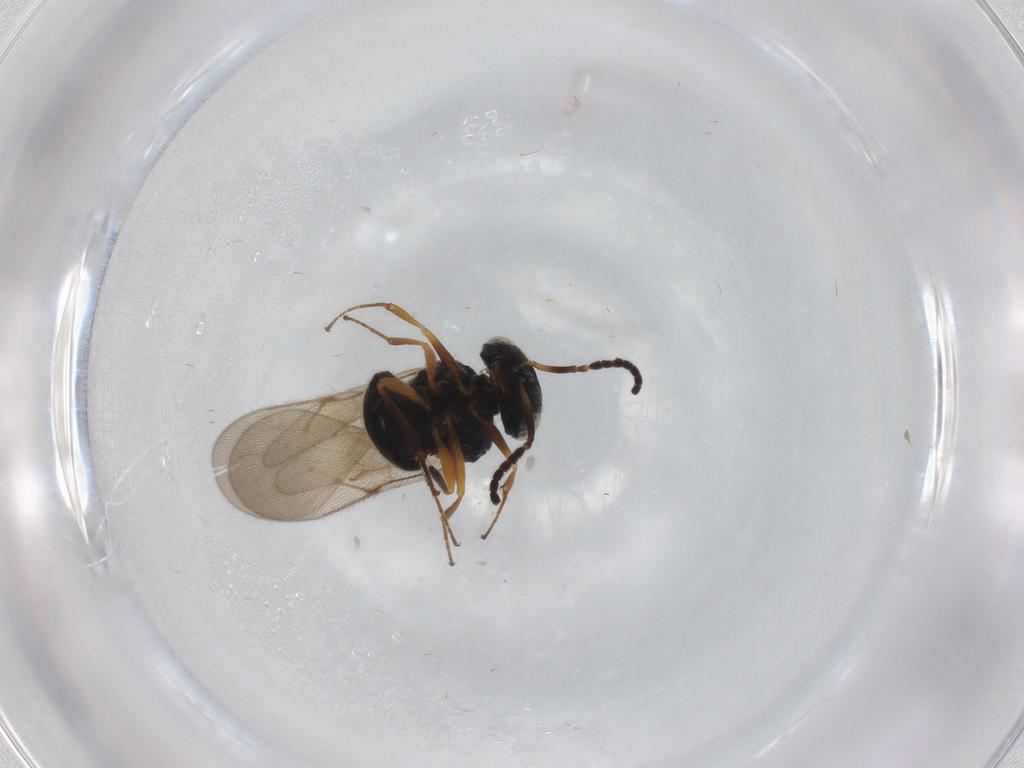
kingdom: Animalia
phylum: Arthropoda
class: Insecta
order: Hymenoptera
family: Scelionidae
